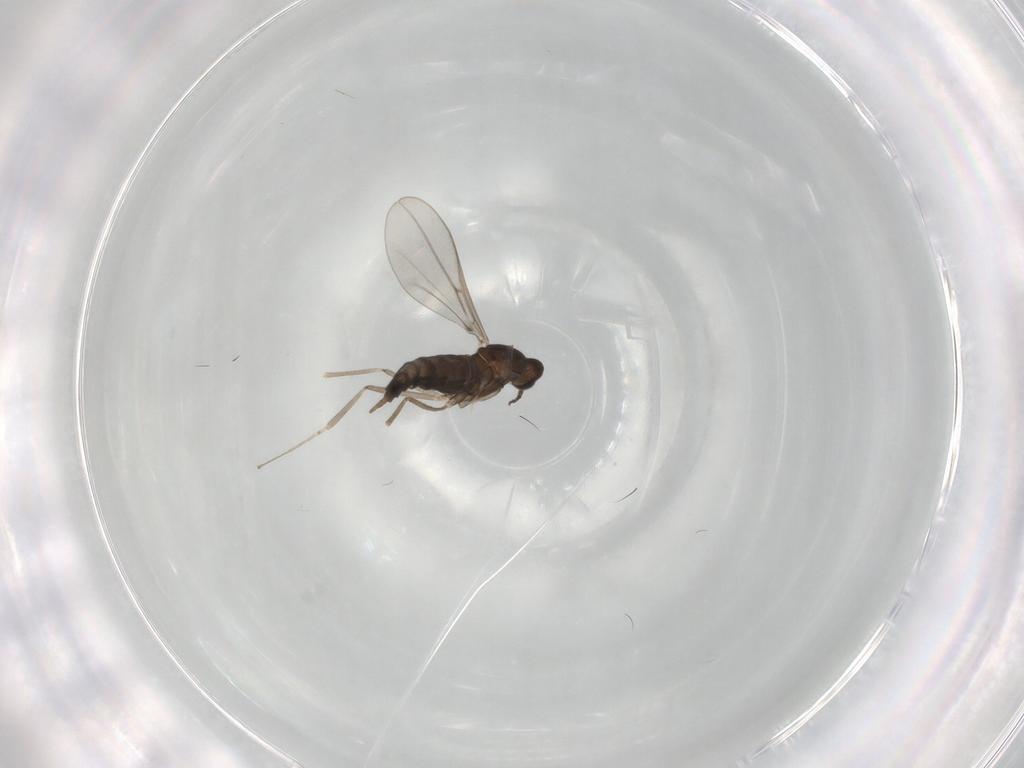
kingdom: Animalia
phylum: Arthropoda
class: Insecta
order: Diptera
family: Cecidomyiidae
